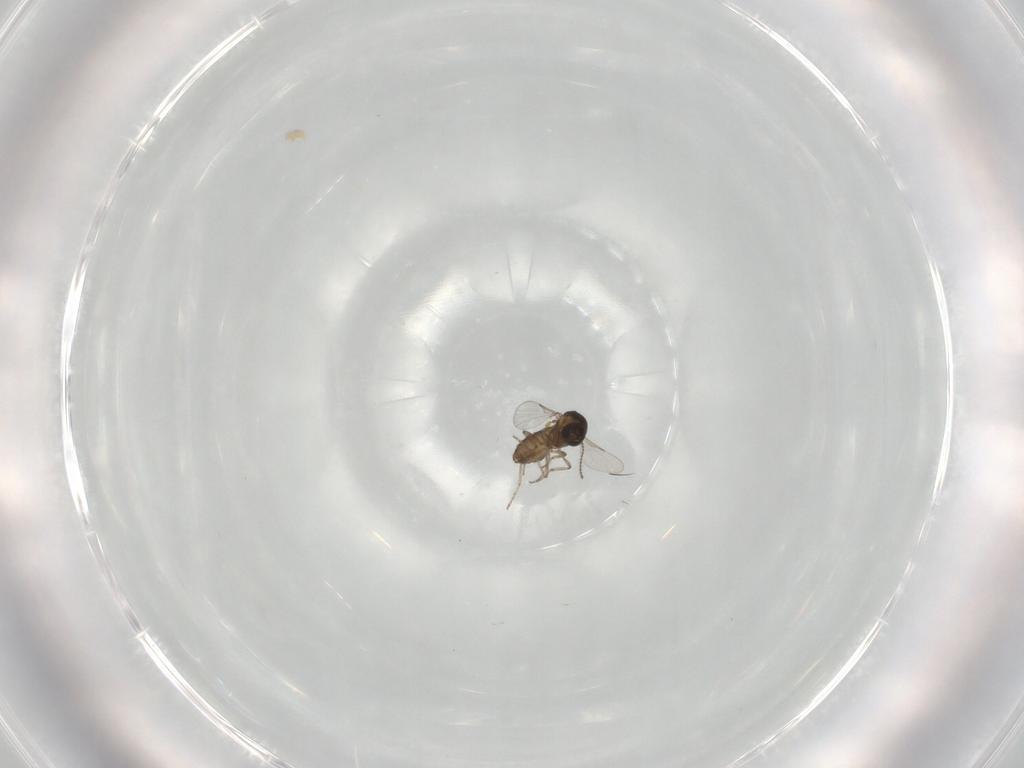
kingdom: Animalia
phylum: Arthropoda
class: Insecta
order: Diptera
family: Ceratopogonidae
